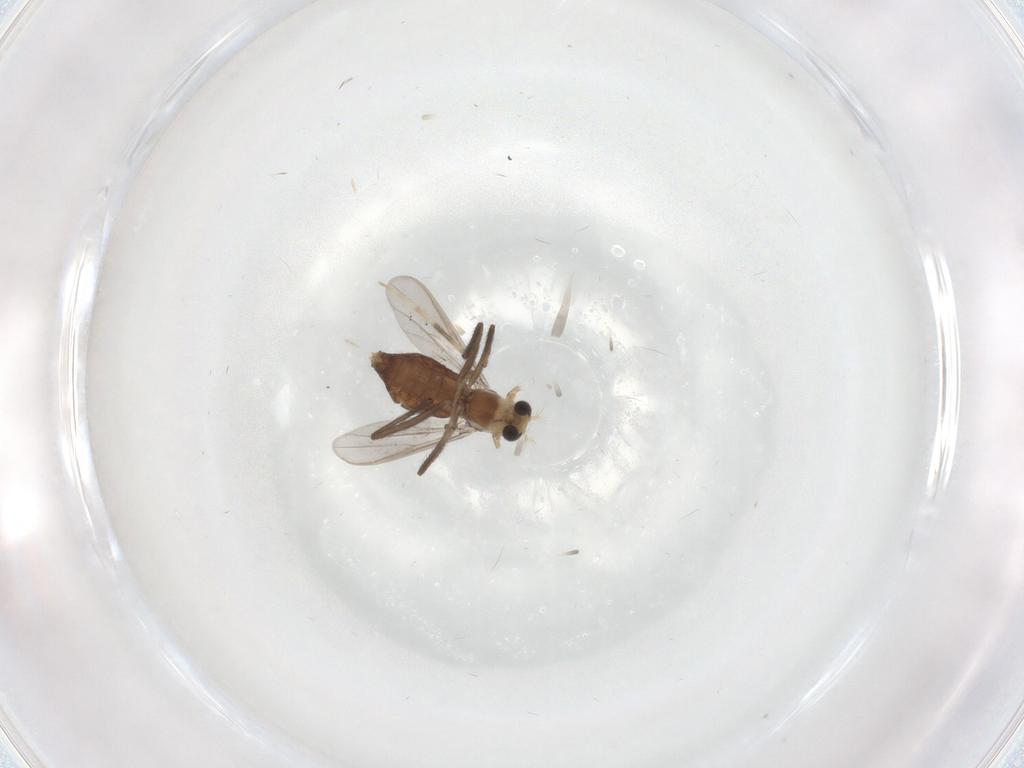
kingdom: Animalia
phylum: Arthropoda
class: Insecta
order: Diptera
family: Chironomidae
